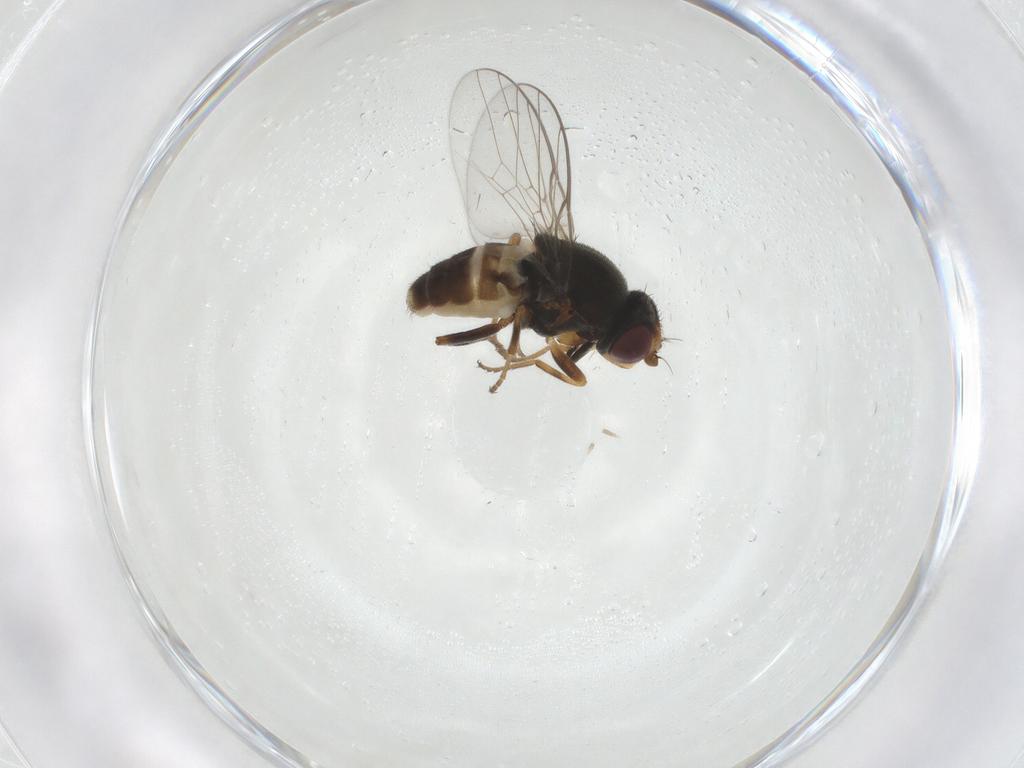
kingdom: Animalia
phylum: Arthropoda
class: Insecta
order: Diptera
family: Chloropidae
